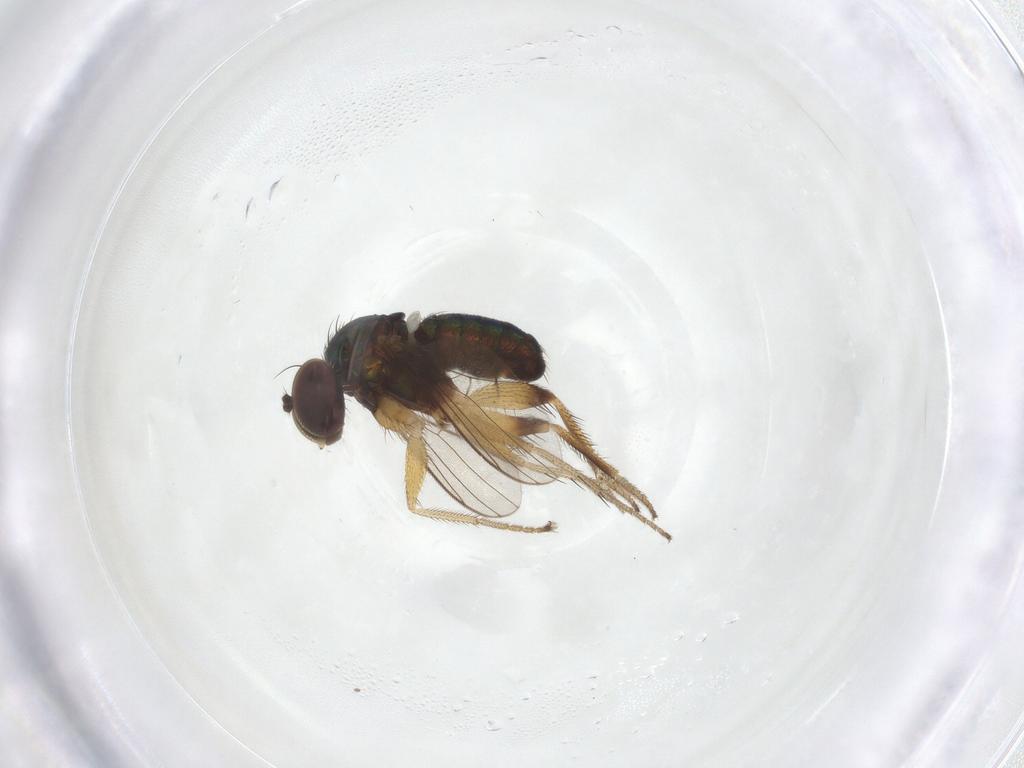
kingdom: Animalia
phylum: Arthropoda
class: Insecta
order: Diptera
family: Dolichopodidae
